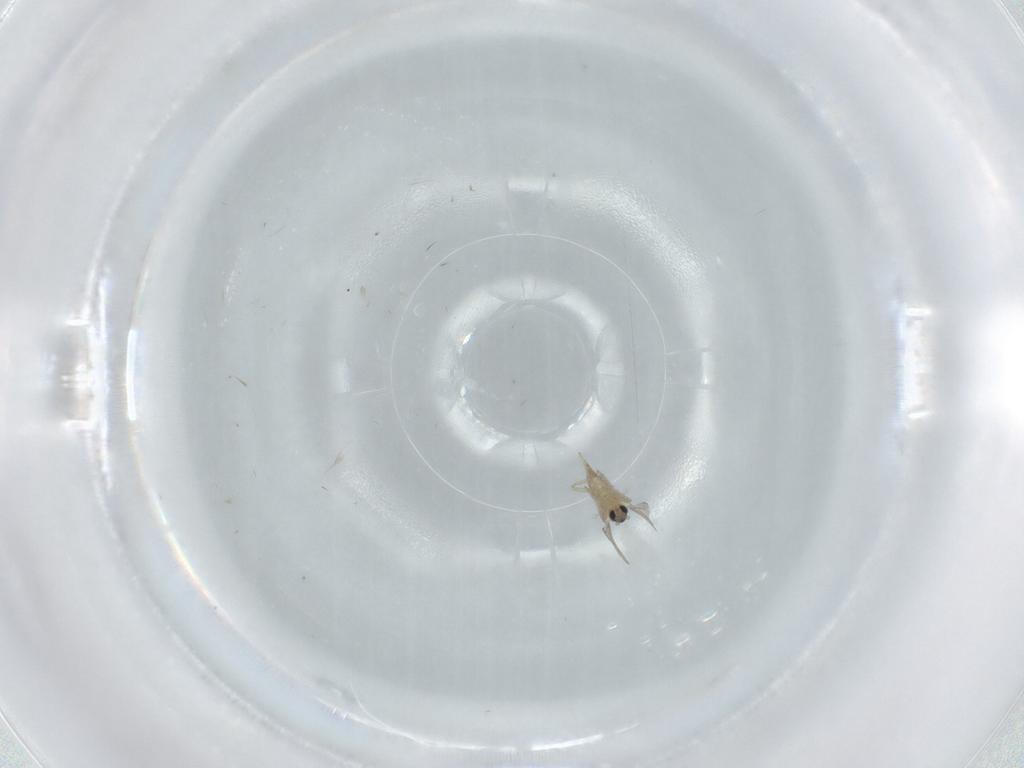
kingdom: Animalia
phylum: Arthropoda
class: Insecta
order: Diptera
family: Cecidomyiidae
